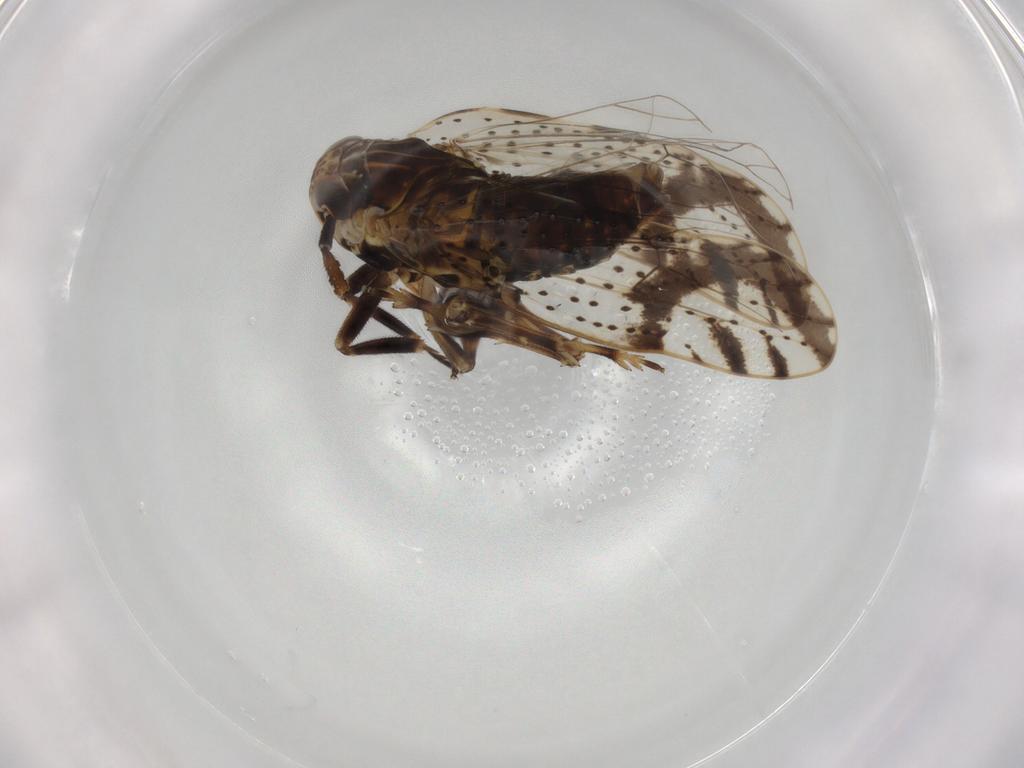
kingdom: Animalia
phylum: Arthropoda
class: Insecta
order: Hemiptera
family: Delphacidae
